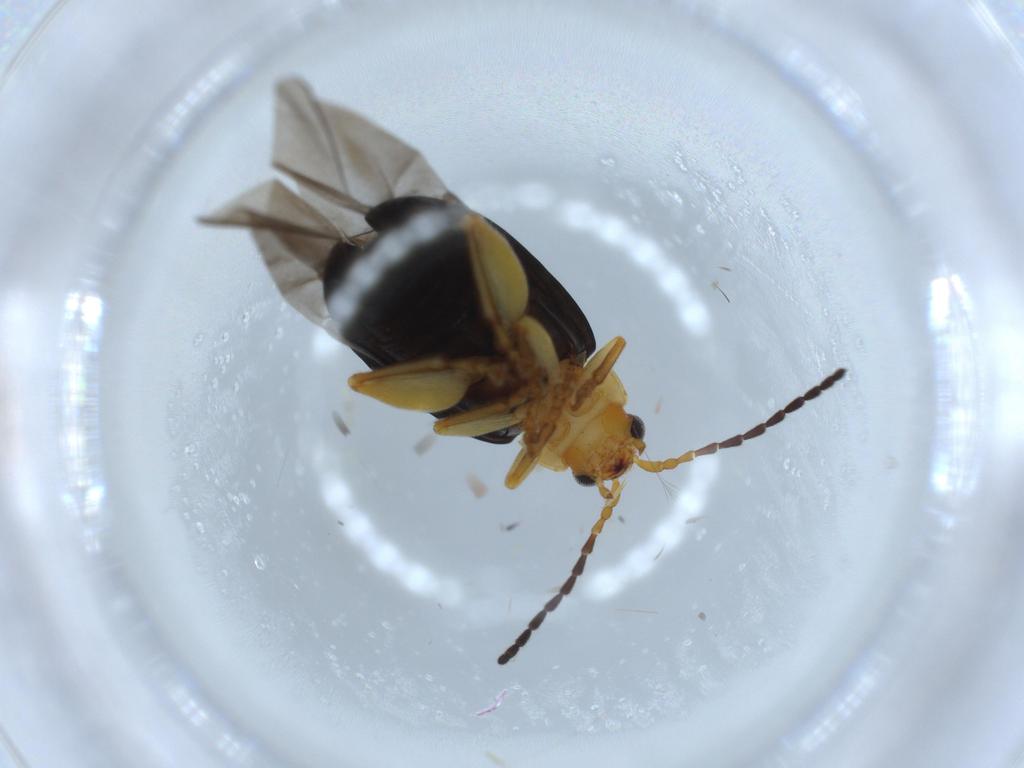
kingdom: Animalia
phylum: Arthropoda
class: Insecta
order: Coleoptera
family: Chrysomelidae
